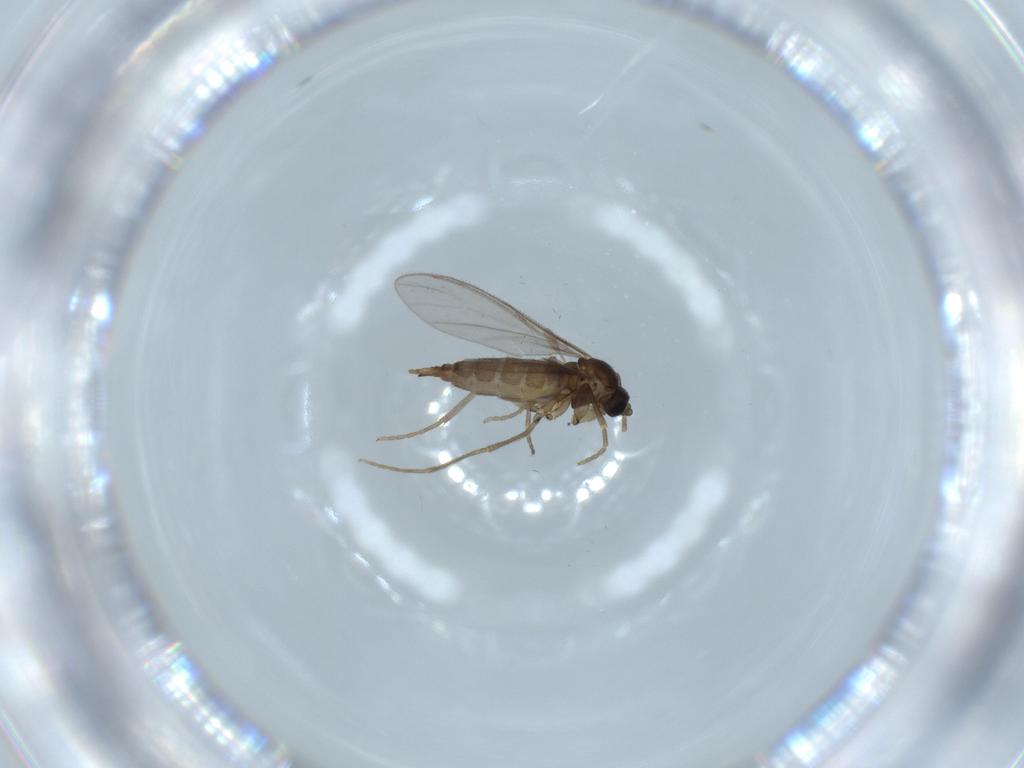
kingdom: Animalia
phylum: Arthropoda
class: Insecta
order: Diptera
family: Sciaridae
